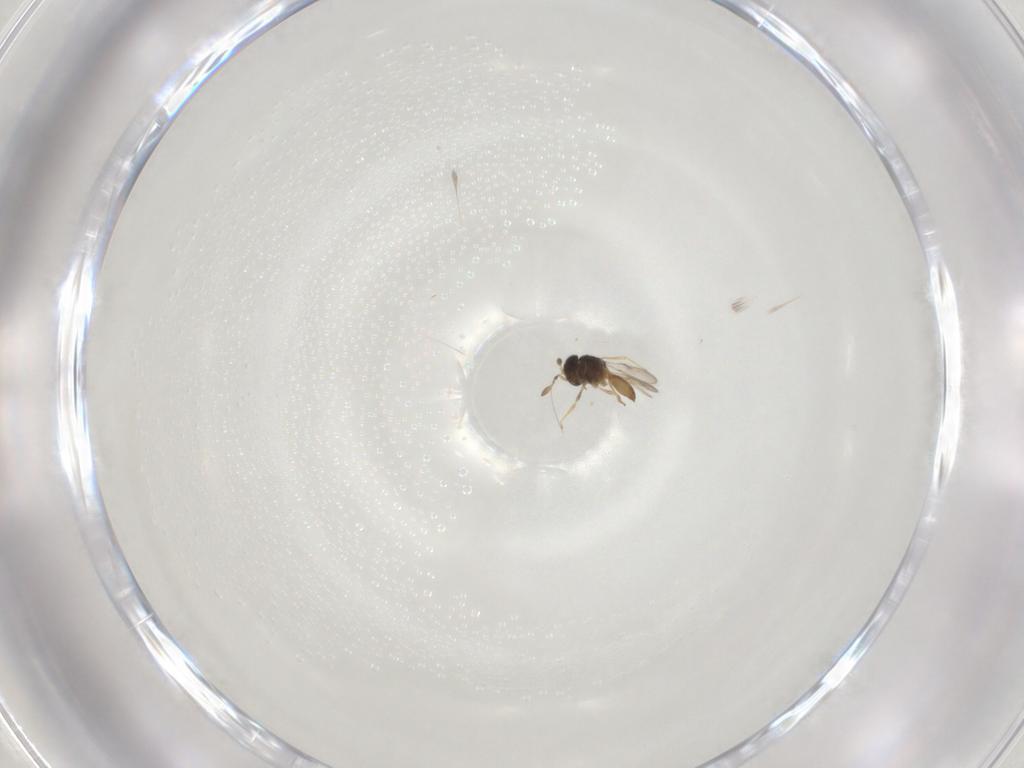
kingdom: Animalia
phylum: Arthropoda
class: Insecta
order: Hymenoptera
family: Scelionidae
